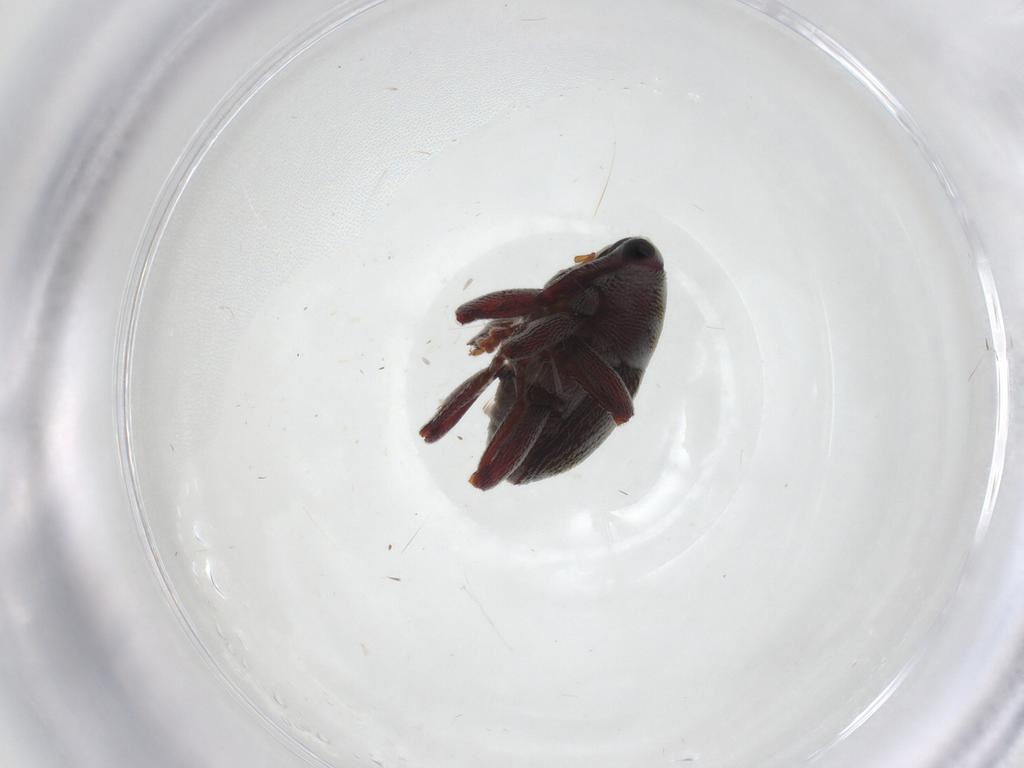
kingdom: Animalia
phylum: Arthropoda
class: Insecta
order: Coleoptera
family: Curculionidae
